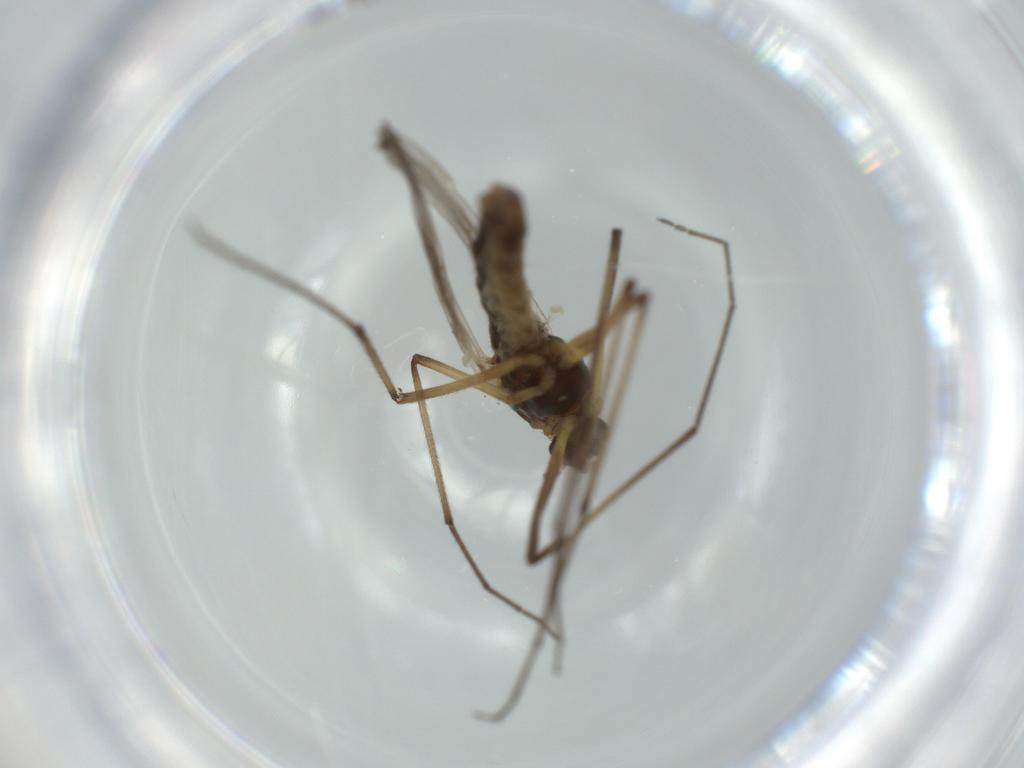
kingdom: Animalia
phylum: Arthropoda
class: Insecta
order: Diptera
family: Chironomidae
